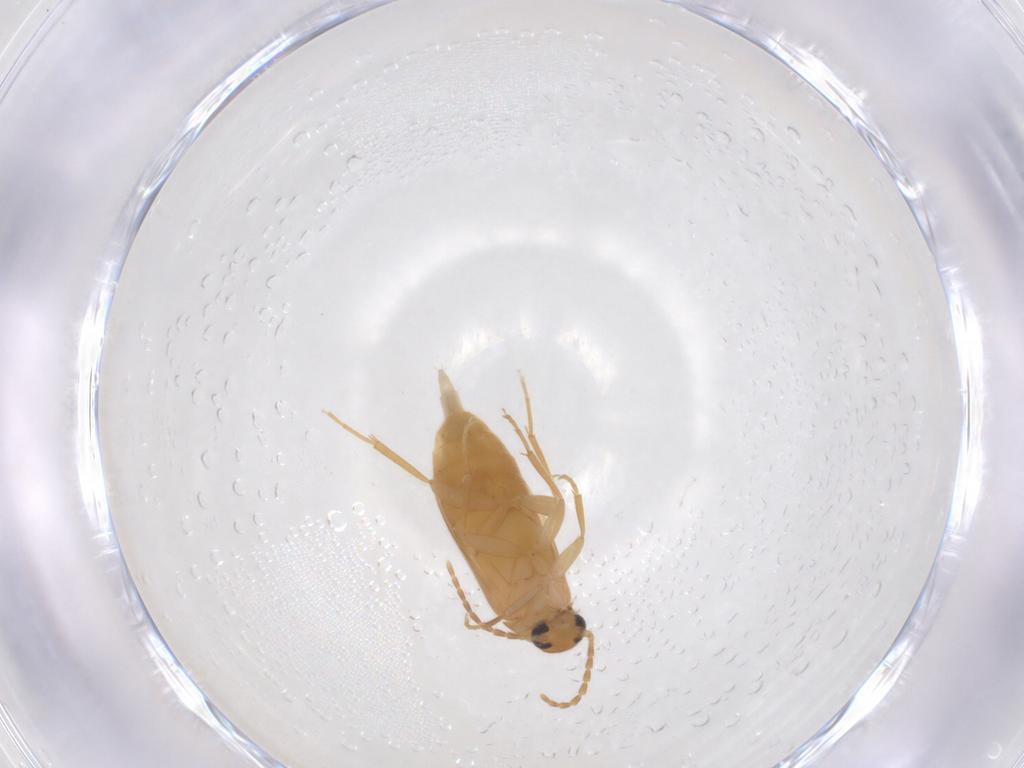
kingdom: Animalia
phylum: Arthropoda
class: Insecta
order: Coleoptera
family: Scraptiidae
